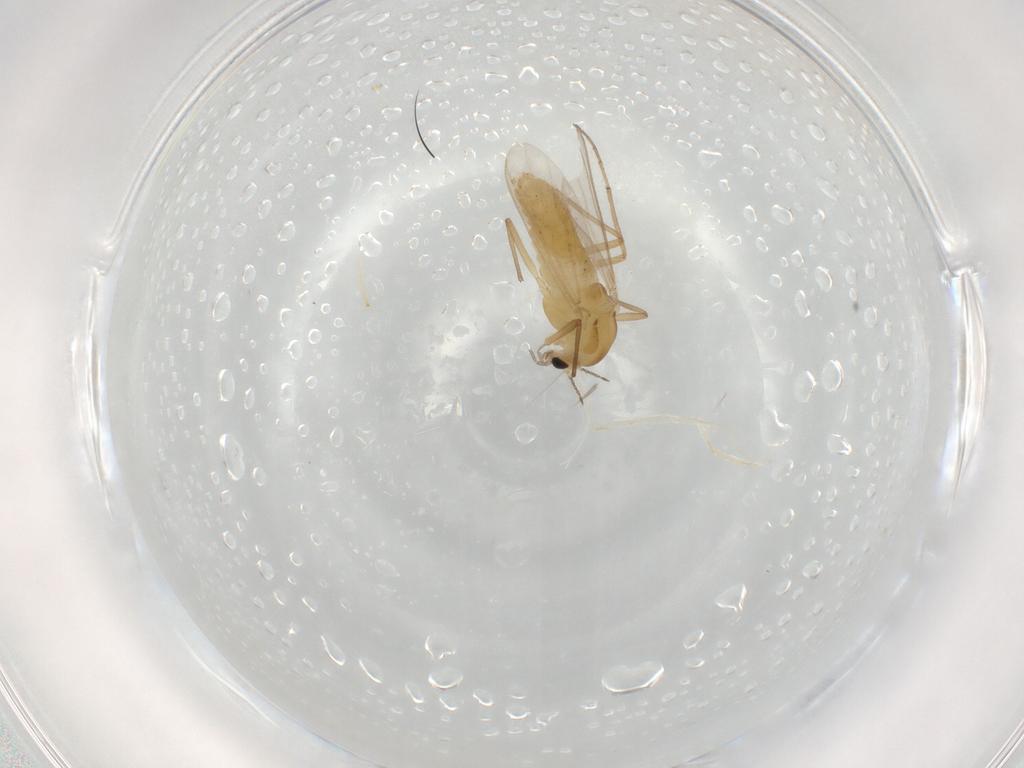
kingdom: Animalia
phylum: Arthropoda
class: Insecta
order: Diptera
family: Chironomidae
